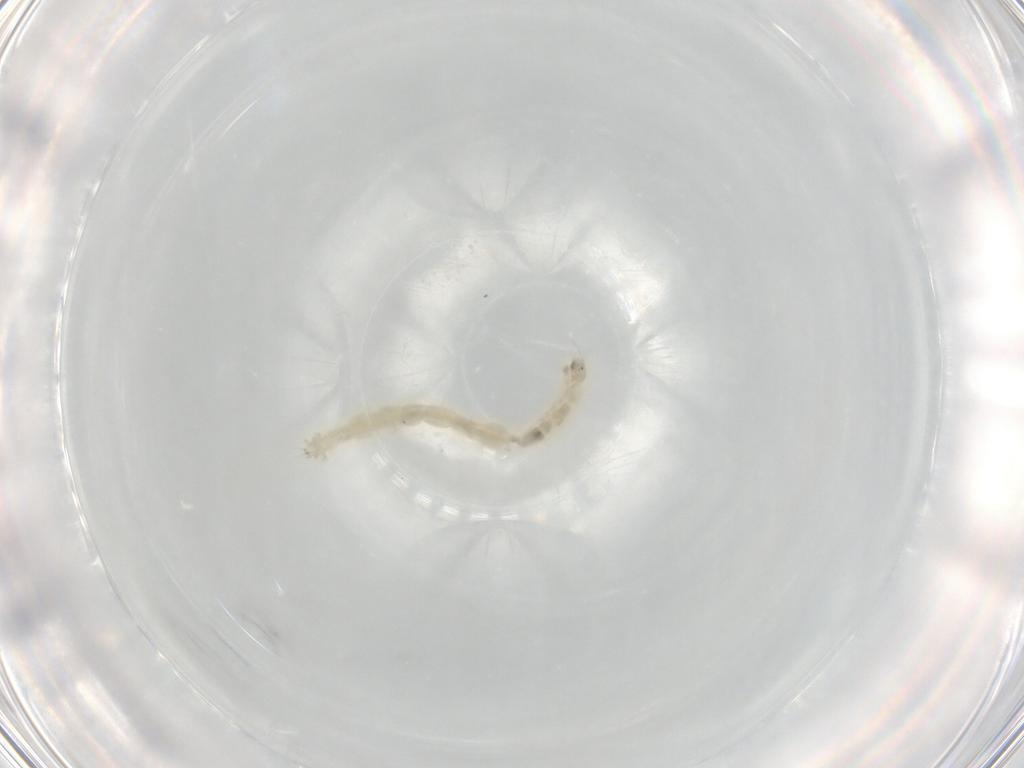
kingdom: Animalia
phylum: Arthropoda
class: Insecta
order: Diptera
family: Chironomidae
